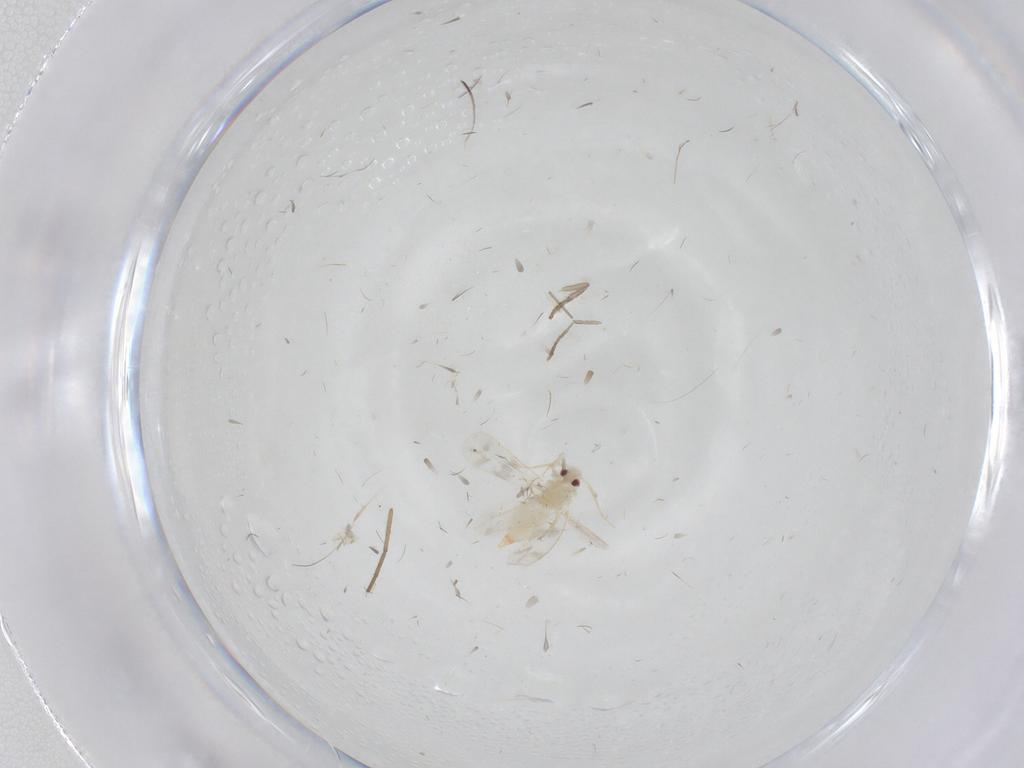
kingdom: Animalia
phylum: Arthropoda
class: Insecta
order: Hemiptera
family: Aleyrodidae
